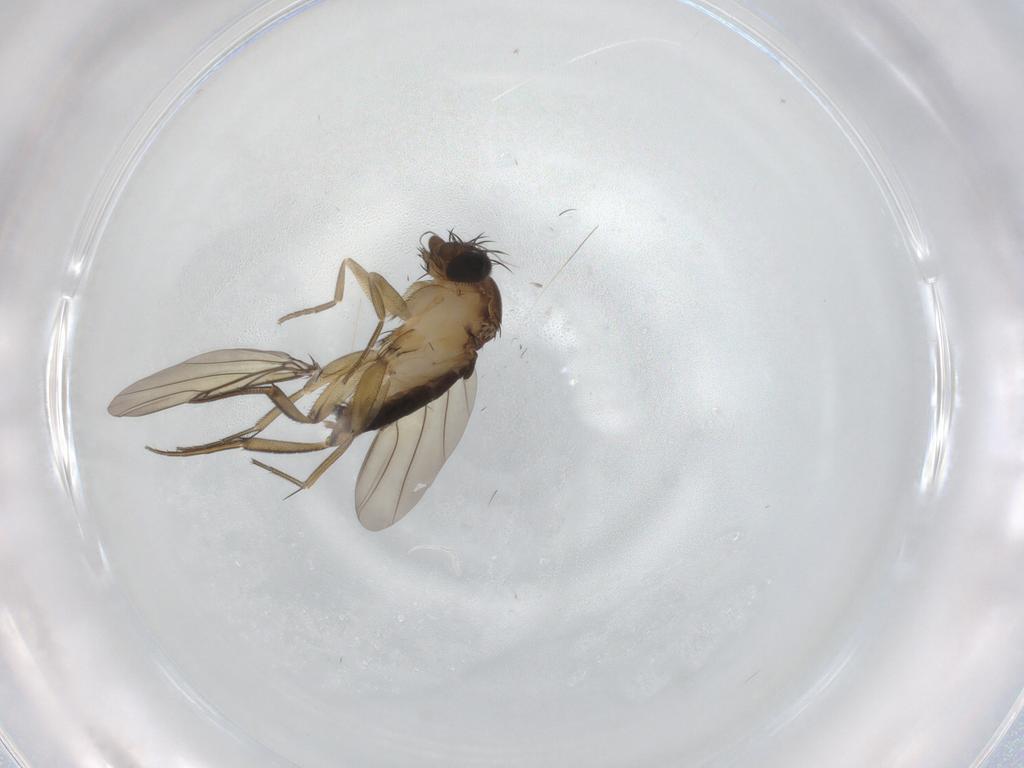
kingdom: Animalia
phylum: Arthropoda
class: Insecta
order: Diptera
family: Phoridae
